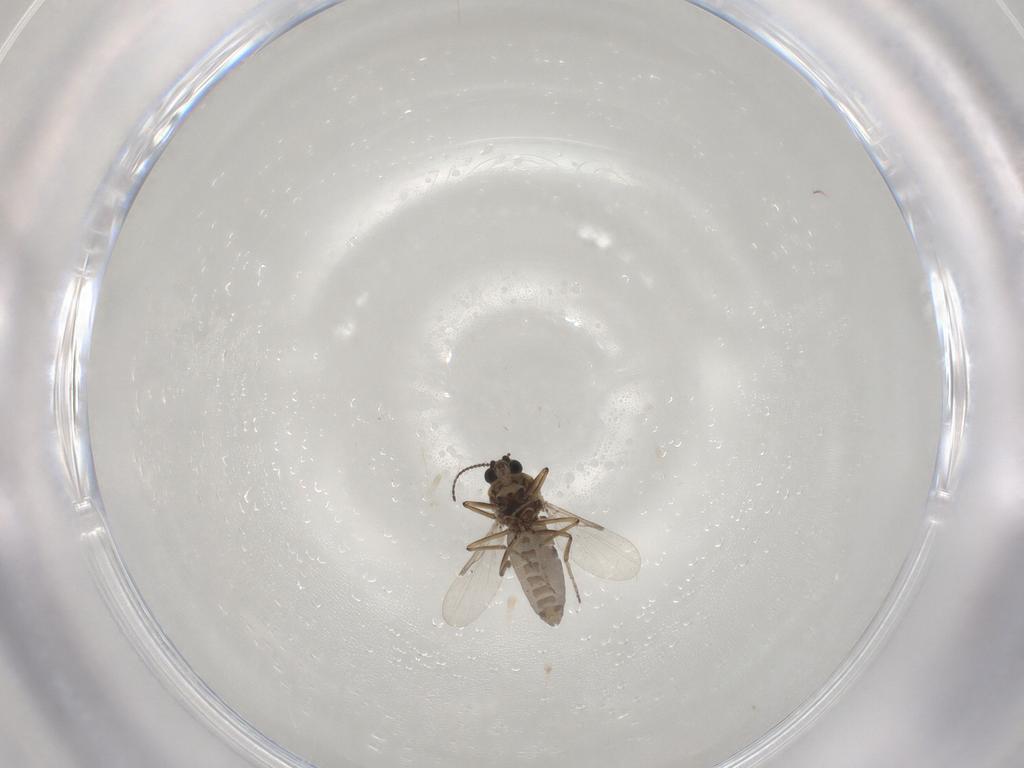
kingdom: Animalia
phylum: Arthropoda
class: Insecta
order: Diptera
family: Ceratopogonidae
